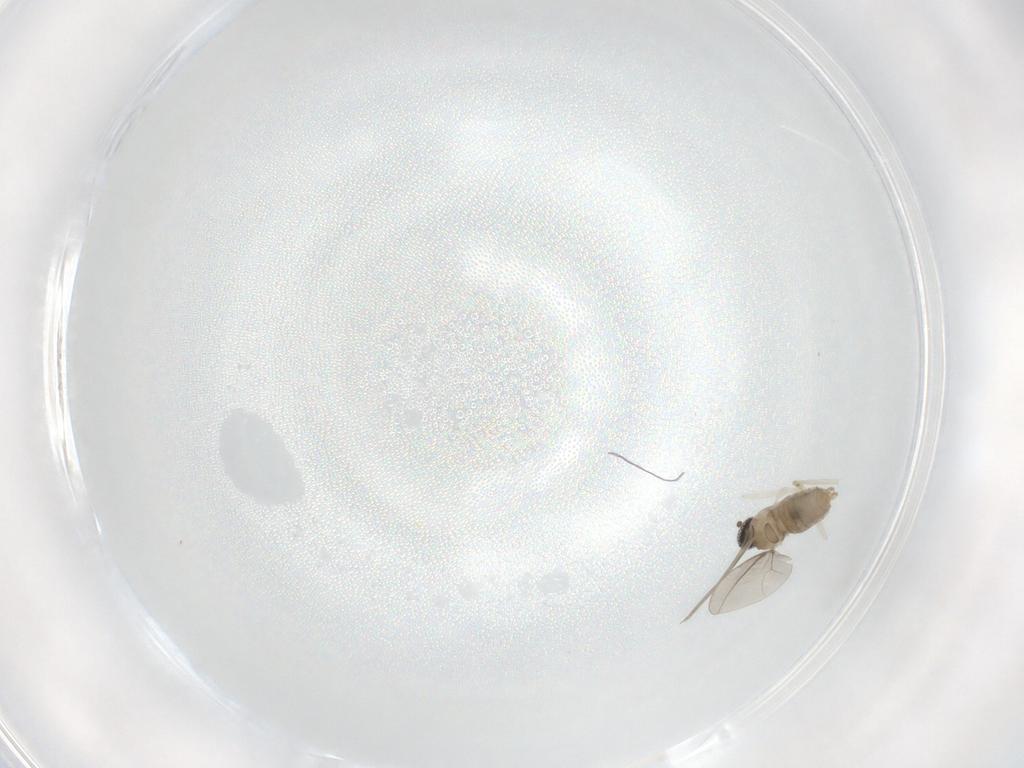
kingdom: Animalia
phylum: Arthropoda
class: Insecta
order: Diptera
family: Cecidomyiidae
